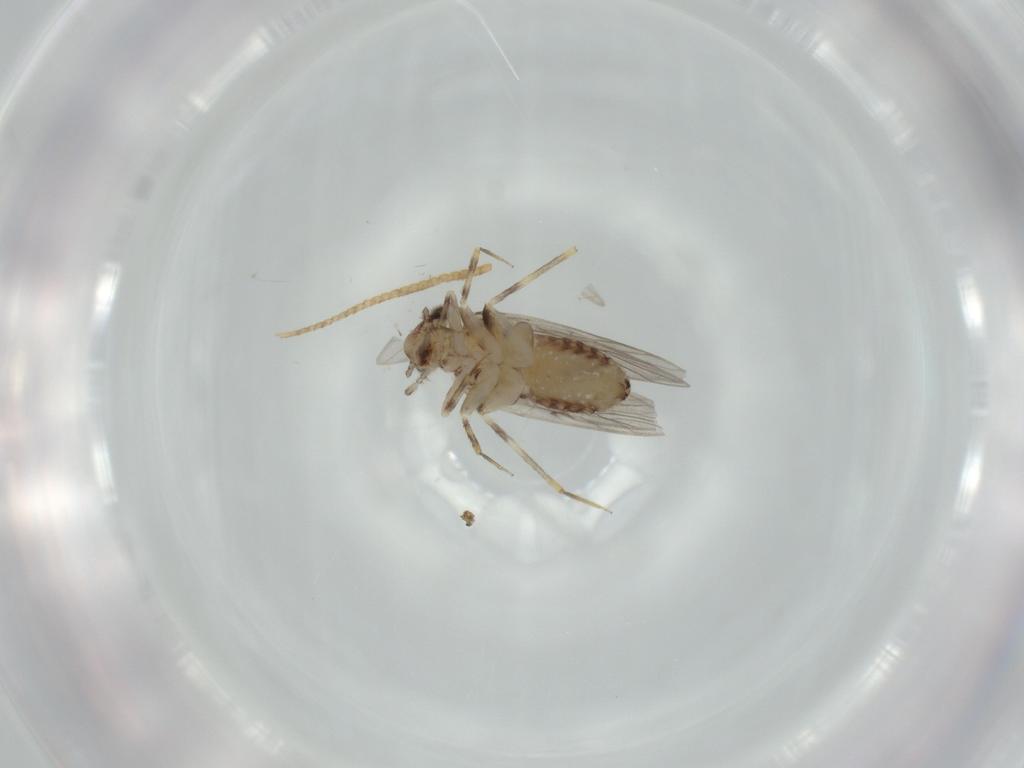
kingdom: Animalia
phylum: Arthropoda
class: Insecta
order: Psocodea
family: Lepidopsocidae
